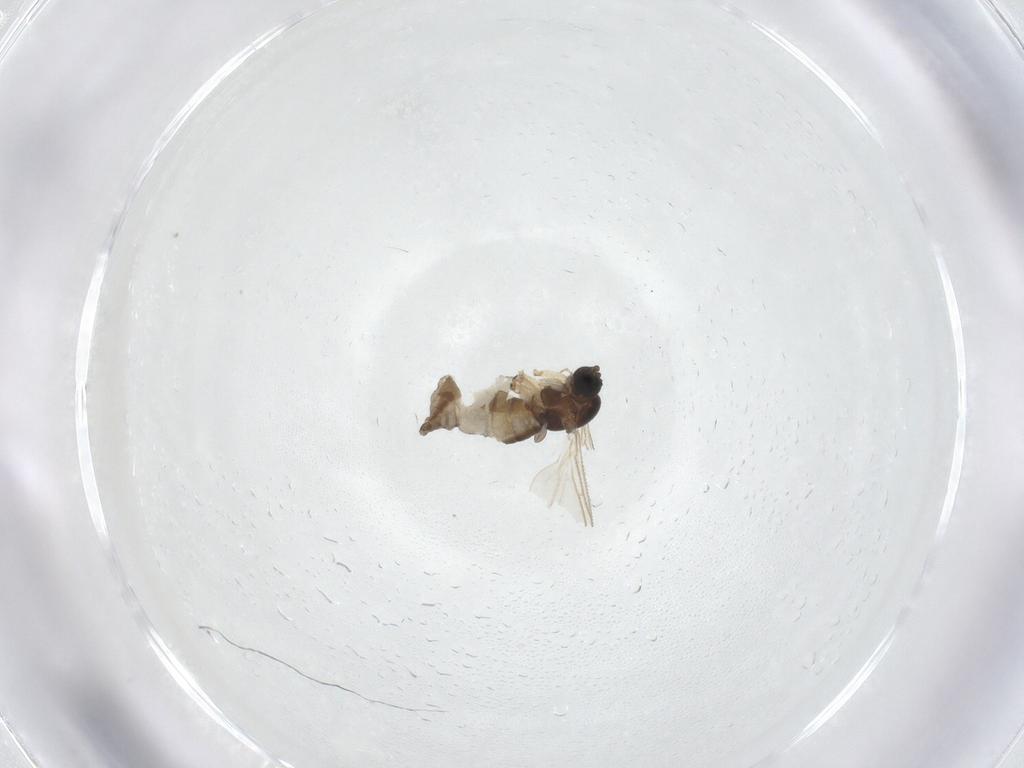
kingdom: Animalia
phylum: Arthropoda
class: Insecta
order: Diptera
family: Sciaridae
